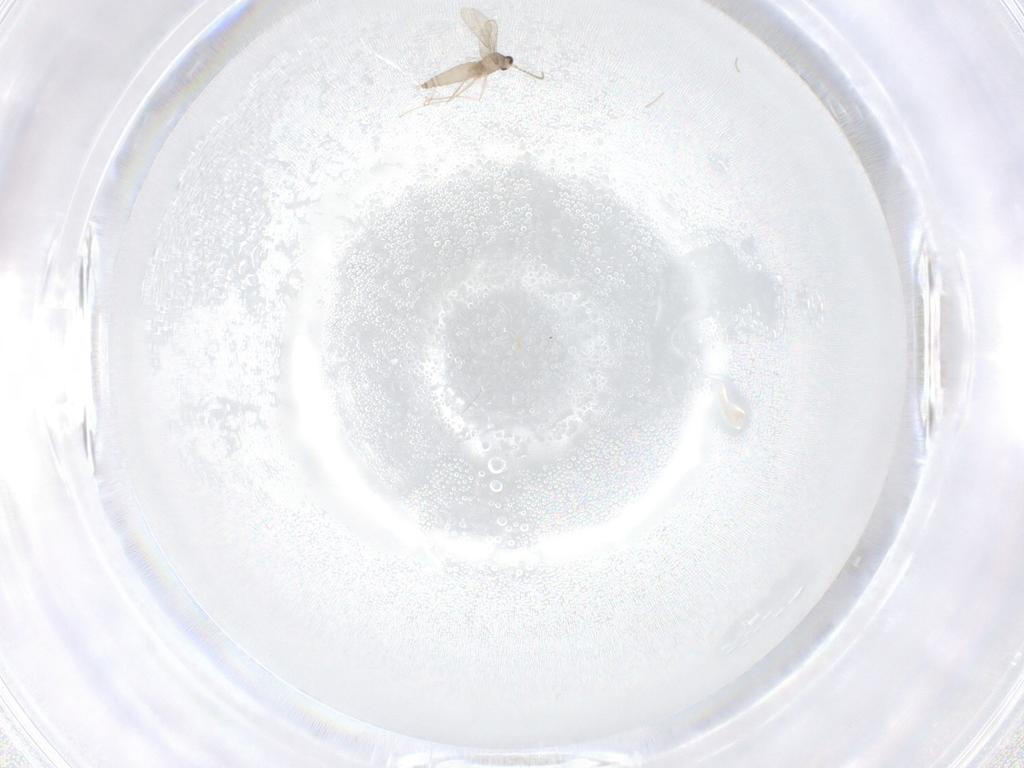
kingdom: Animalia
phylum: Arthropoda
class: Insecta
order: Diptera
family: Cecidomyiidae
